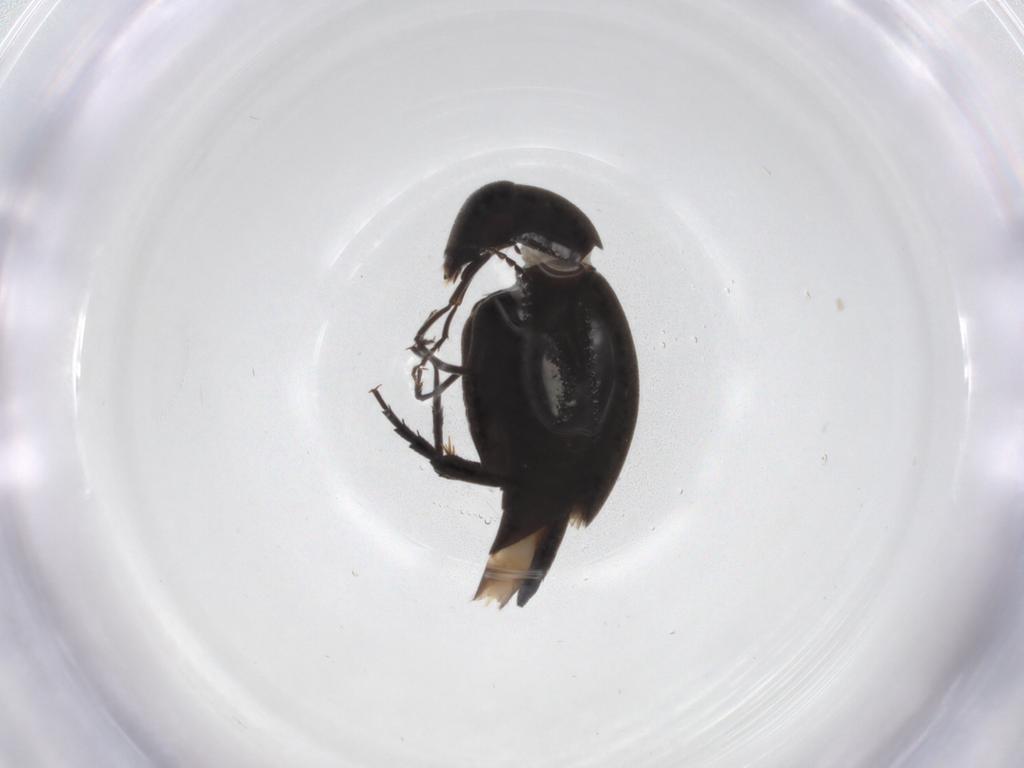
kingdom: Animalia
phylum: Arthropoda
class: Insecta
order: Coleoptera
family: Mordellidae
